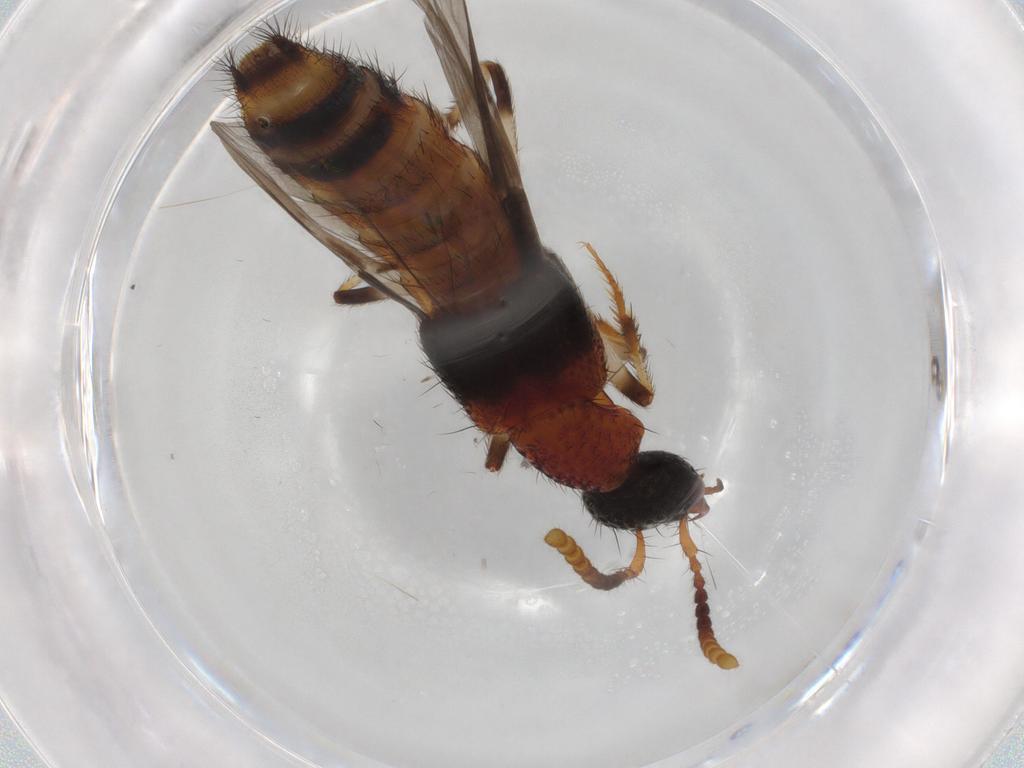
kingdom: Animalia
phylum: Arthropoda
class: Insecta
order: Coleoptera
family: Staphylinidae
